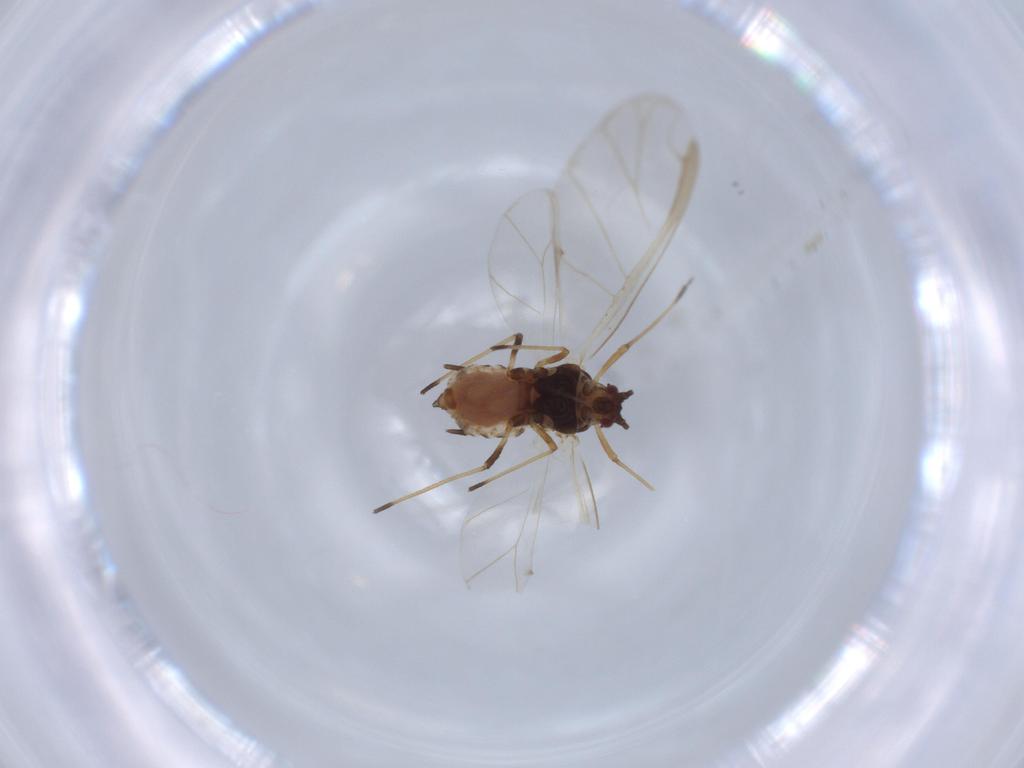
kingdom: Animalia
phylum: Arthropoda
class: Insecta
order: Hemiptera
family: Aphididae
